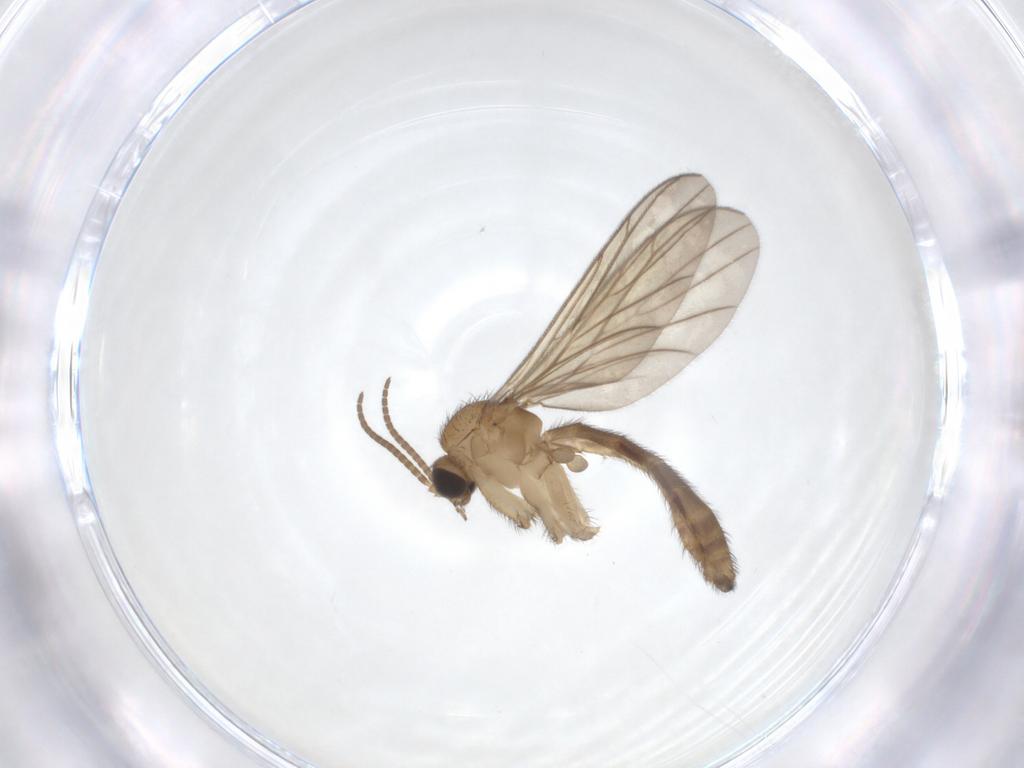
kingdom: Animalia
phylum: Arthropoda
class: Insecta
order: Diptera
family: Keroplatidae
